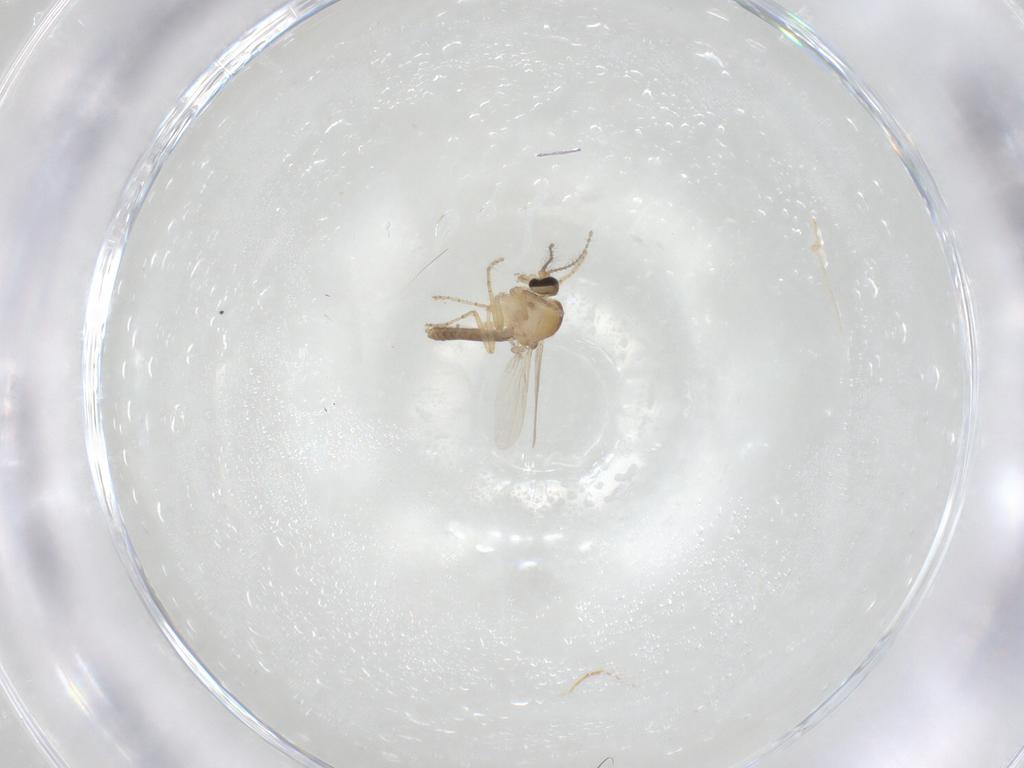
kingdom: Animalia
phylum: Arthropoda
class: Insecta
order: Diptera
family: Ceratopogonidae
